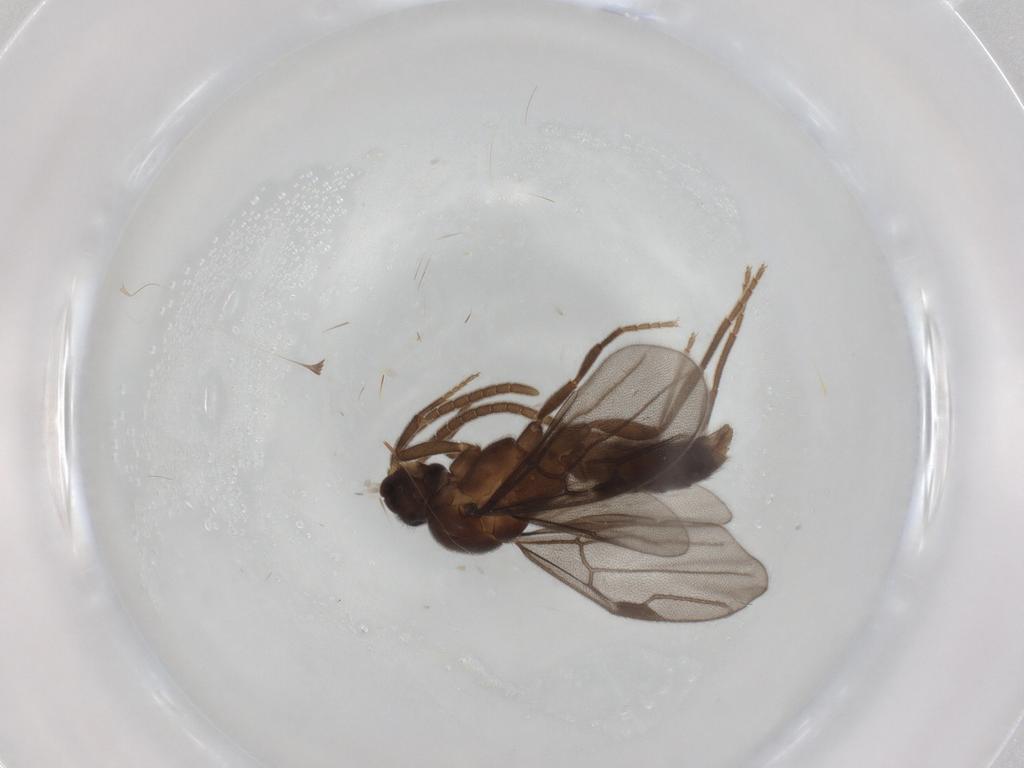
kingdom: Animalia
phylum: Arthropoda
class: Insecta
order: Hymenoptera
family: Formicidae
